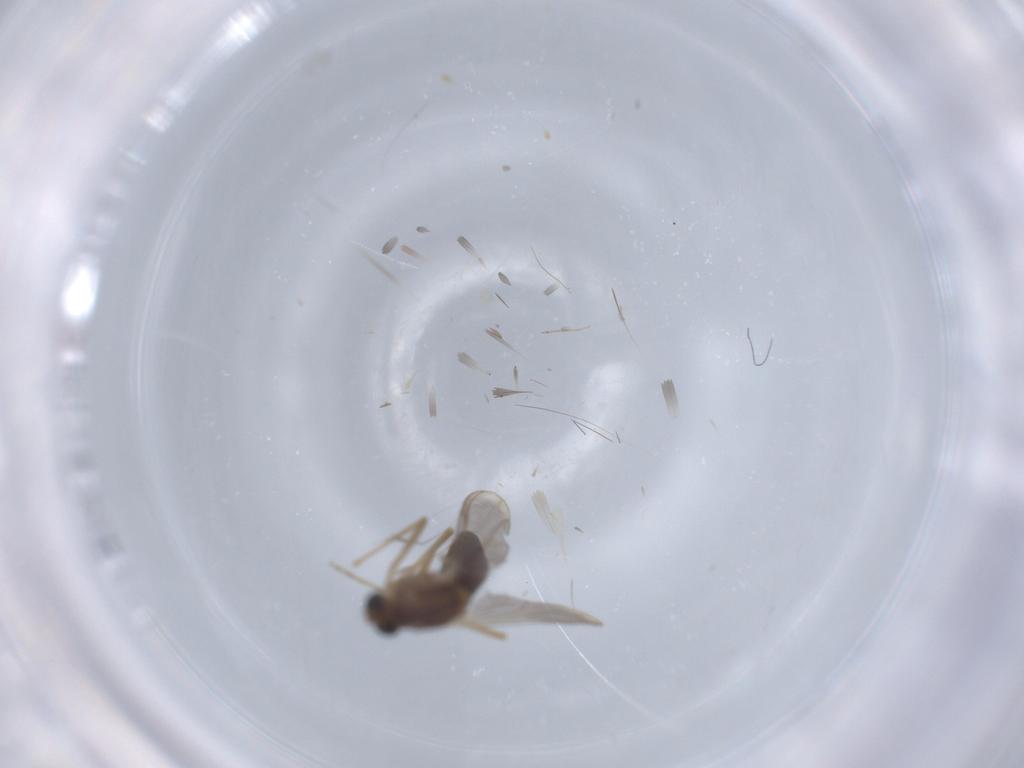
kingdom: Animalia
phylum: Arthropoda
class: Insecta
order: Diptera
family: Chironomidae
